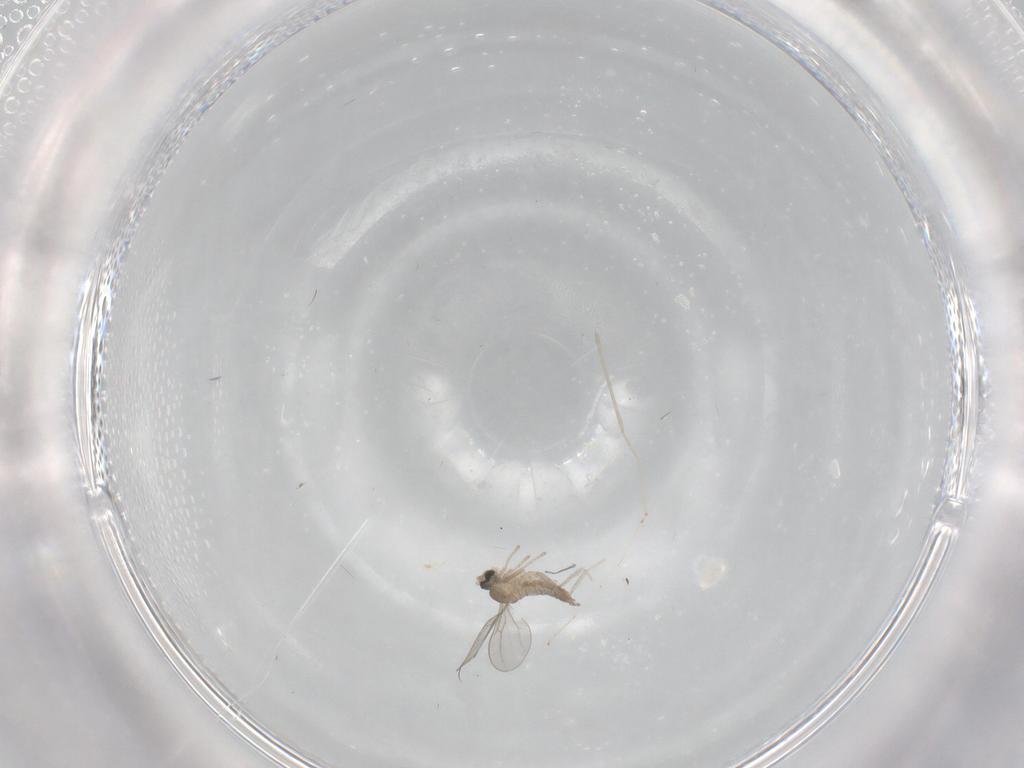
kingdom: Animalia
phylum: Arthropoda
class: Insecta
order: Diptera
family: Cecidomyiidae
